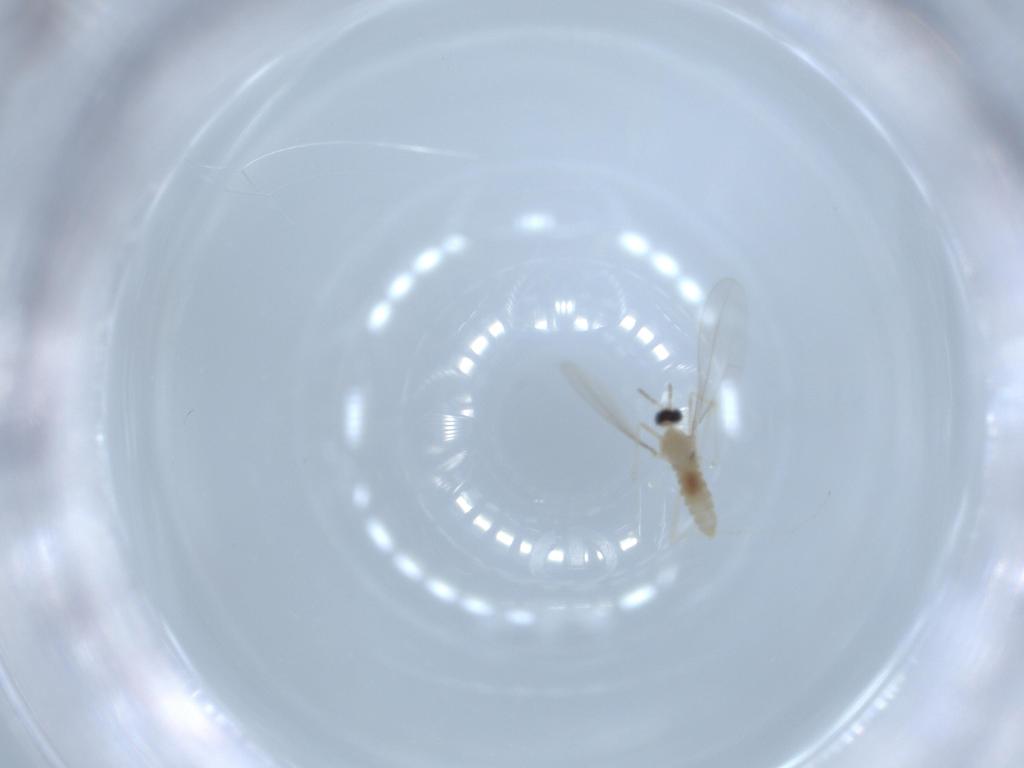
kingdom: Animalia
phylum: Arthropoda
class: Insecta
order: Diptera
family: Cecidomyiidae
